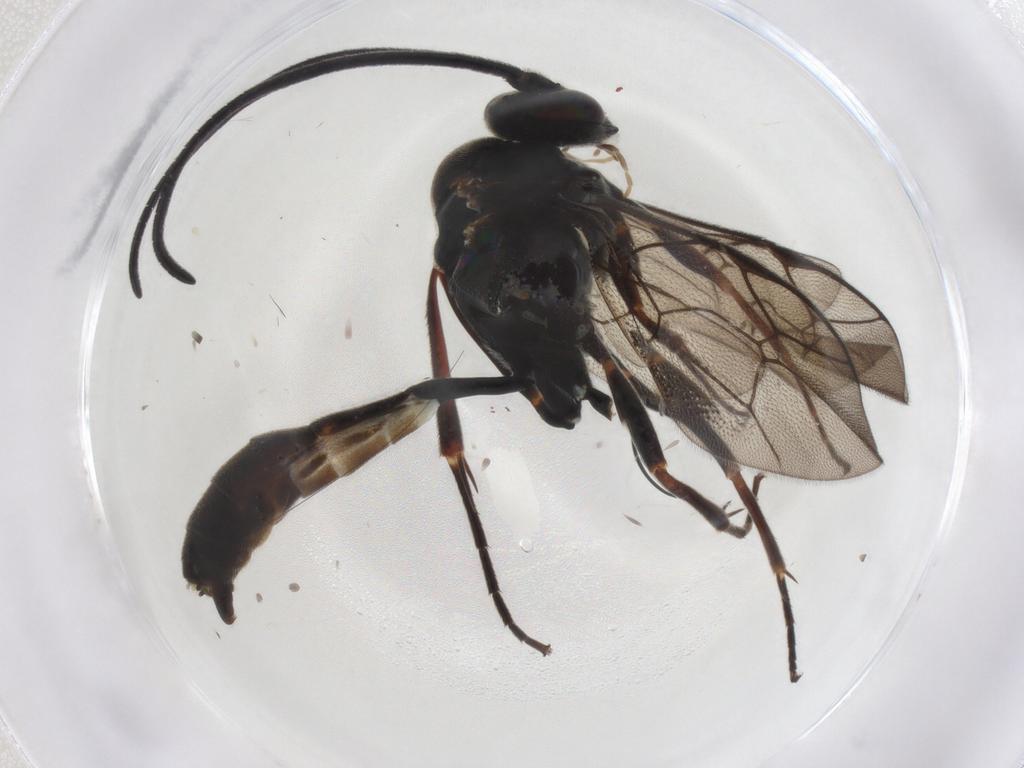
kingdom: Animalia
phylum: Arthropoda
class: Insecta
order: Hymenoptera
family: Ichneumonidae
